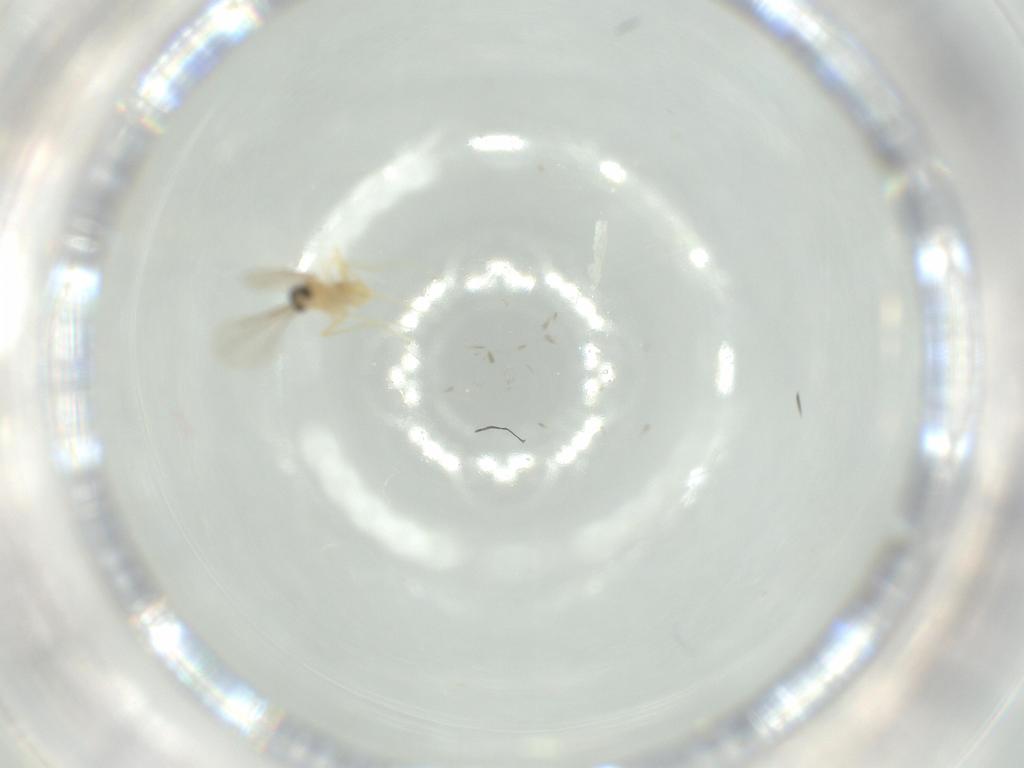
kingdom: Animalia
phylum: Arthropoda
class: Insecta
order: Diptera
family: Cecidomyiidae
